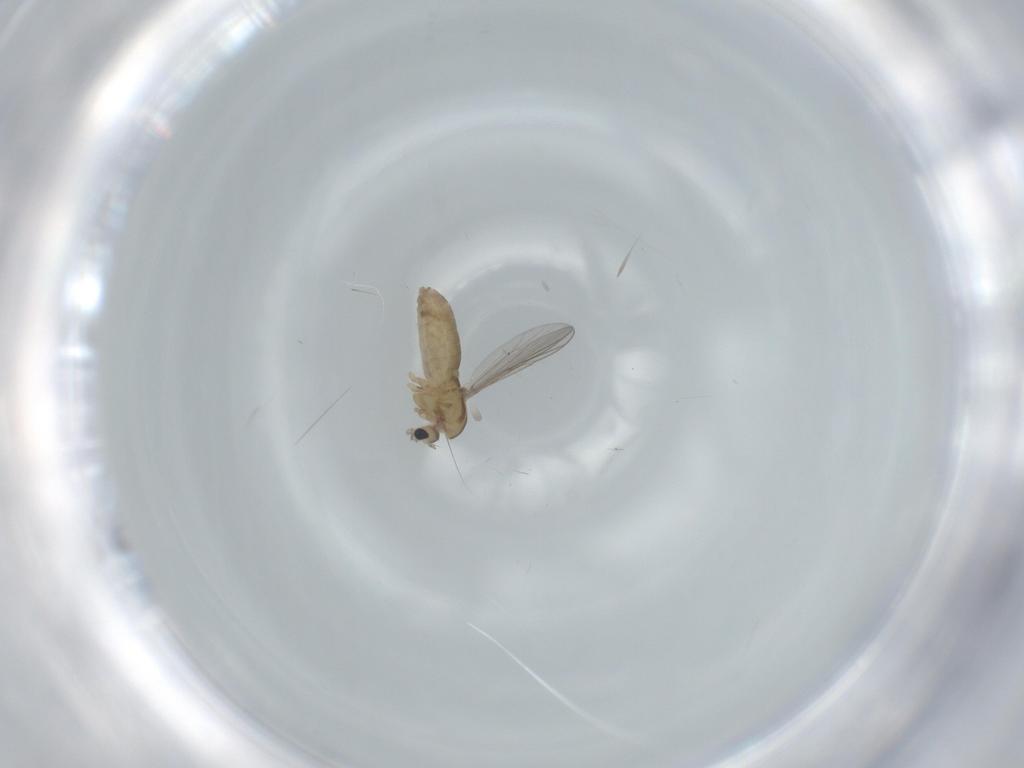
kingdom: Animalia
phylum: Arthropoda
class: Insecta
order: Diptera
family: Chironomidae
